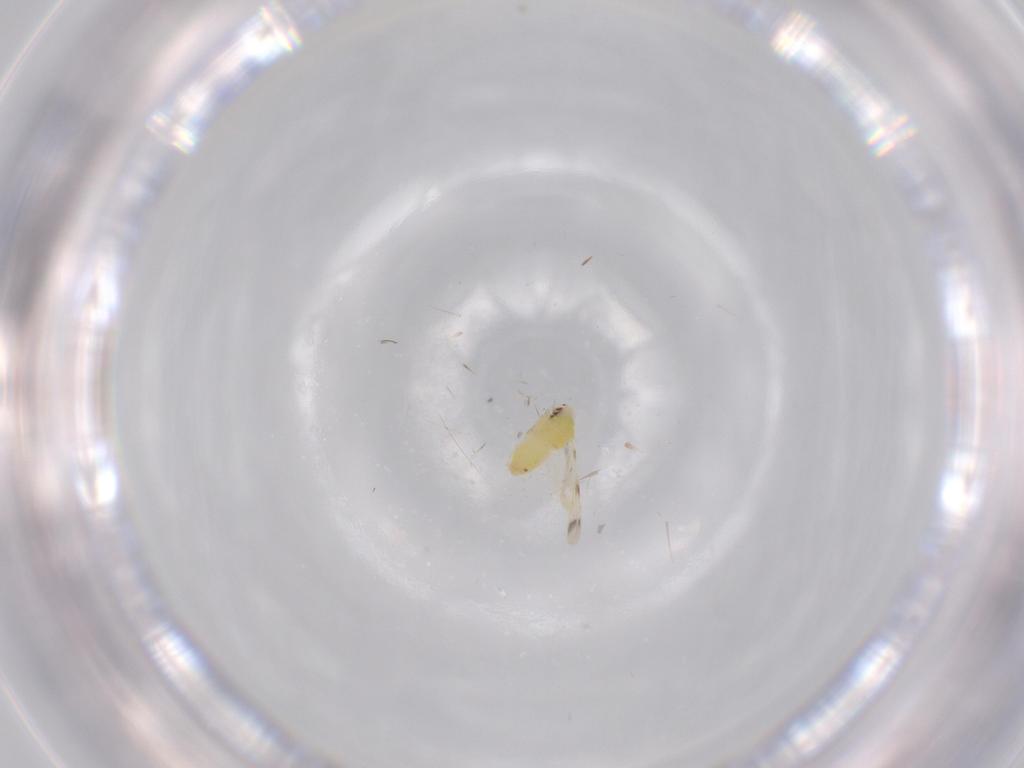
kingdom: Animalia
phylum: Arthropoda
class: Insecta
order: Hemiptera
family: Aleyrodidae
